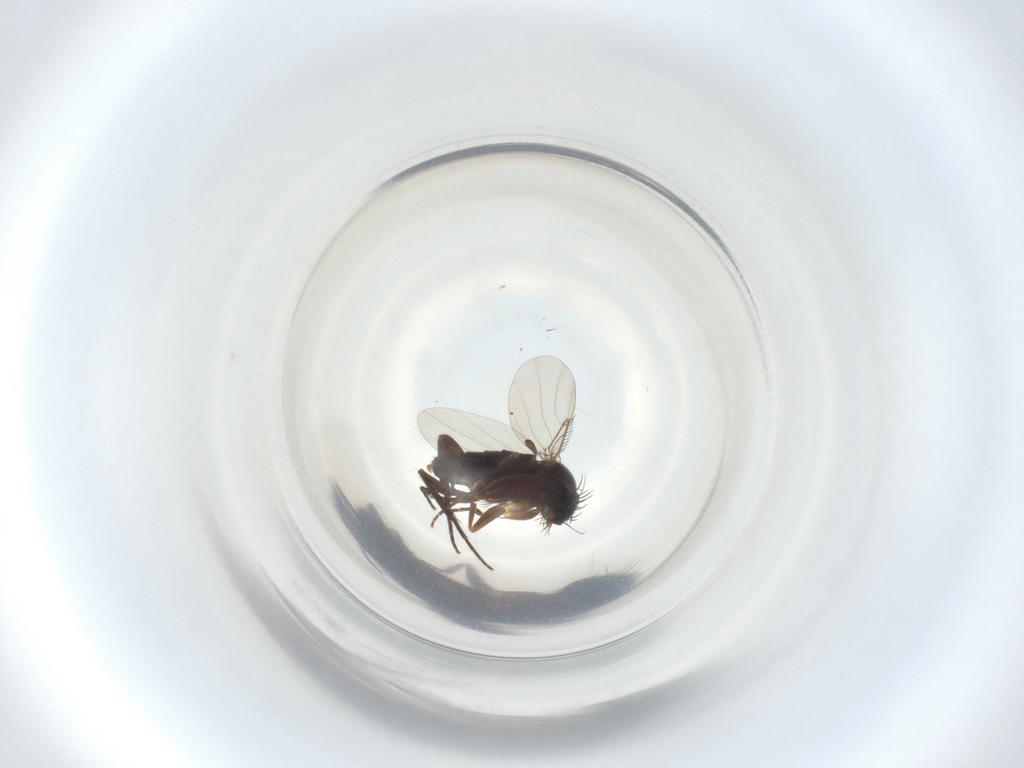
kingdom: Animalia
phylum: Arthropoda
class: Insecta
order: Diptera
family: Phoridae
